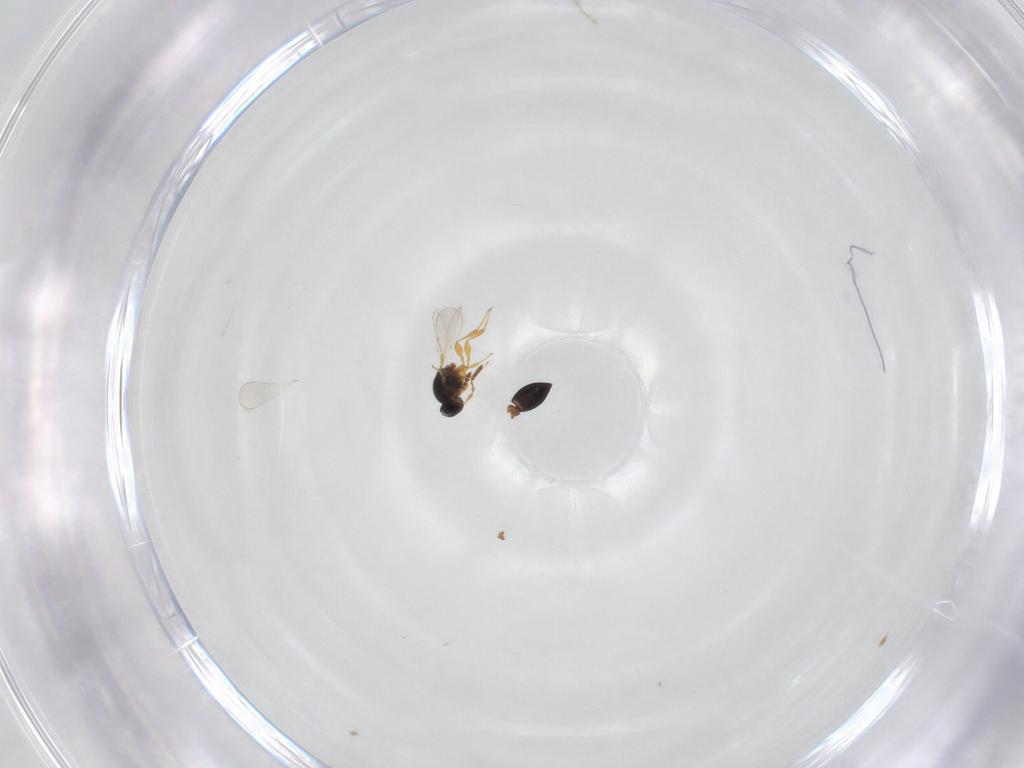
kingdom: Animalia
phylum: Arthropoda
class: Insecta
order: Hymenoptera
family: Platygastridae
